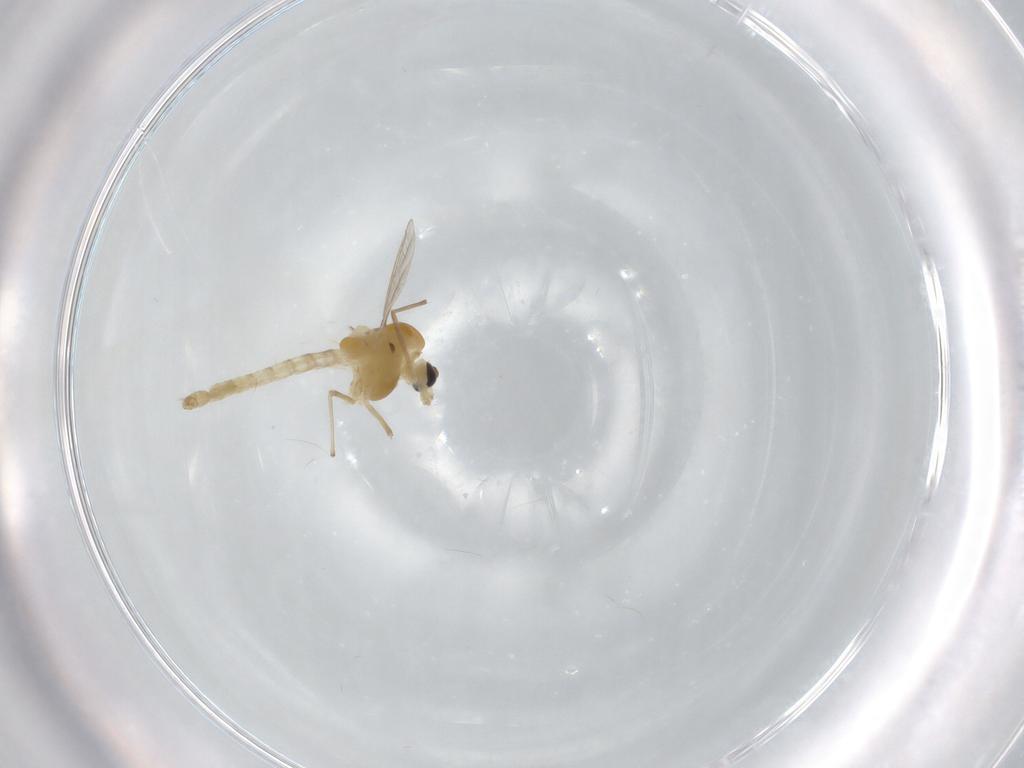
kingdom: Animalia
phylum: Arthropoda
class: Insecta
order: Diptera
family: Chironomidae
